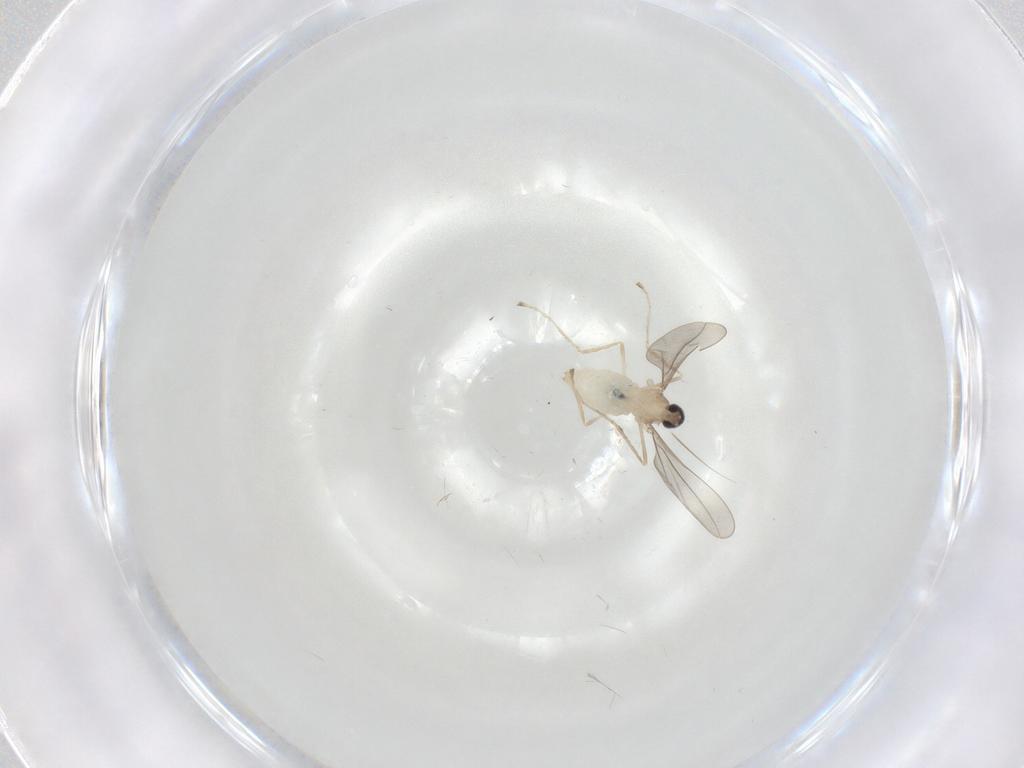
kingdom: Animalia
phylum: Arthropoda
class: Insecta
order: Diptera
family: Cecidomyiidae
